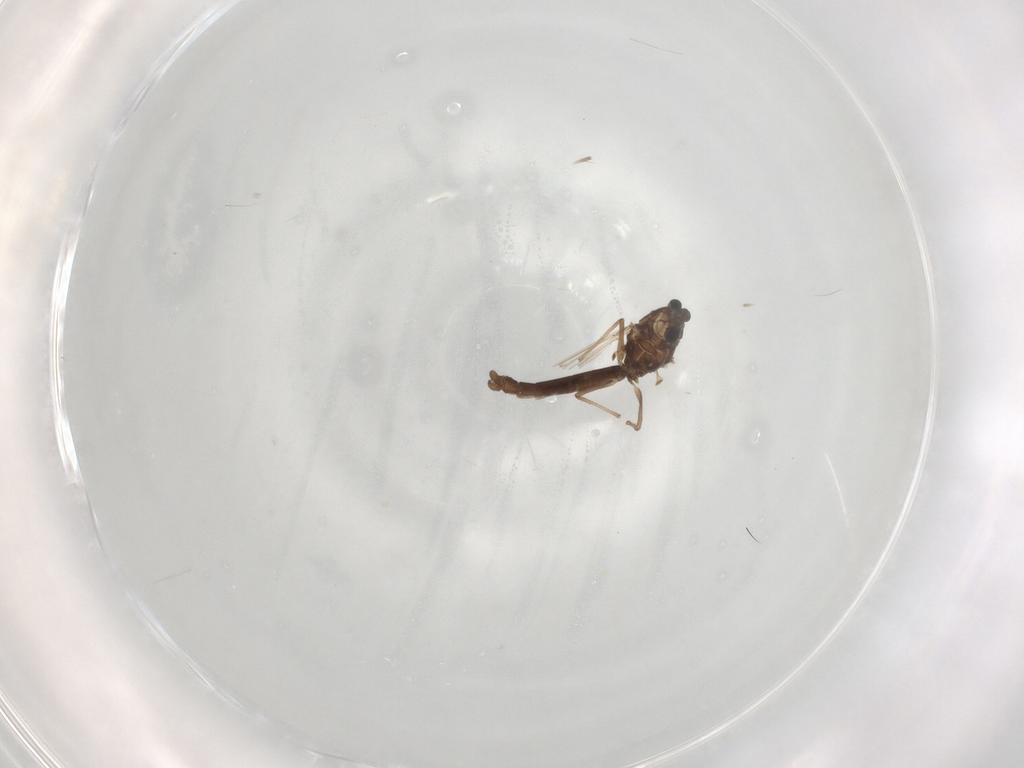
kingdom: Animalia
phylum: Arthropoda
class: Insecta
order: Diptera
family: Chironomidae
